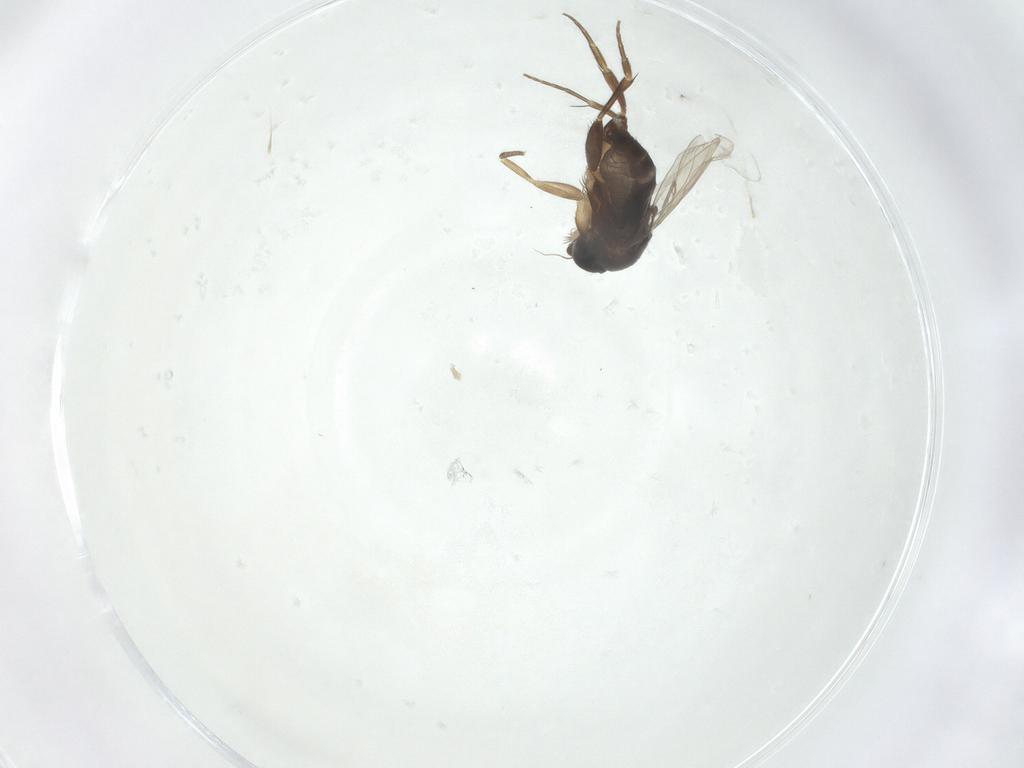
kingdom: Animalia
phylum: Arthropoda
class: Insecta
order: Diptera
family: Phoridae
